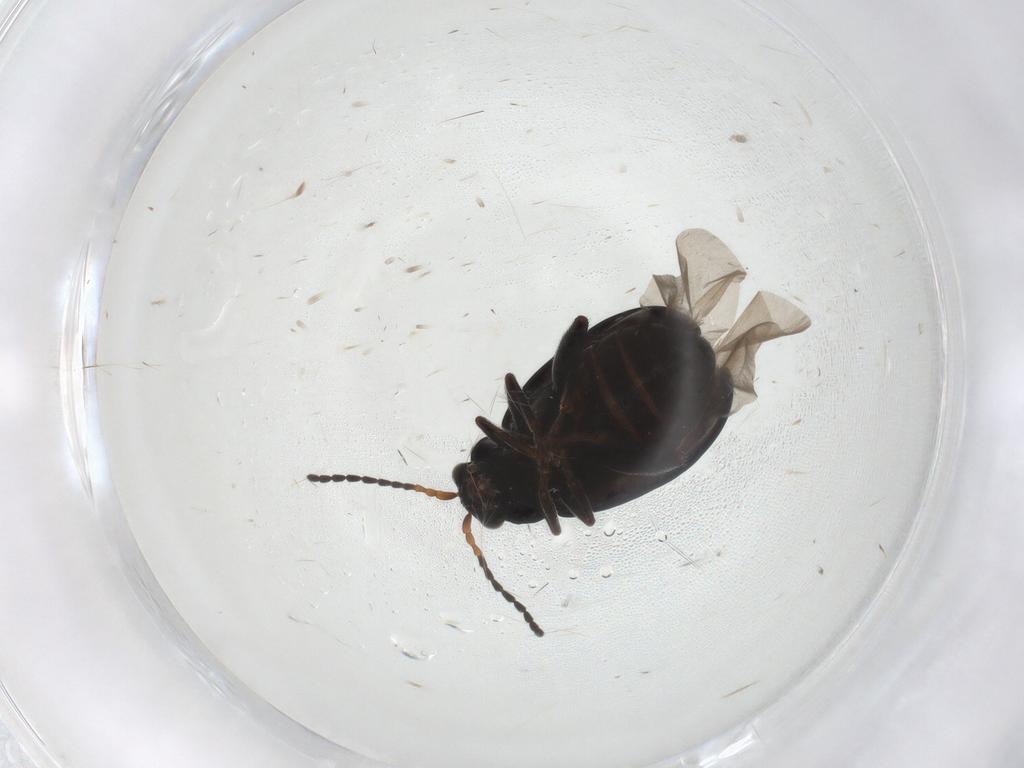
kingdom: Animalia
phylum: Arthropoda
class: Insecta
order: Coleoptera
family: Chrysomelidae
